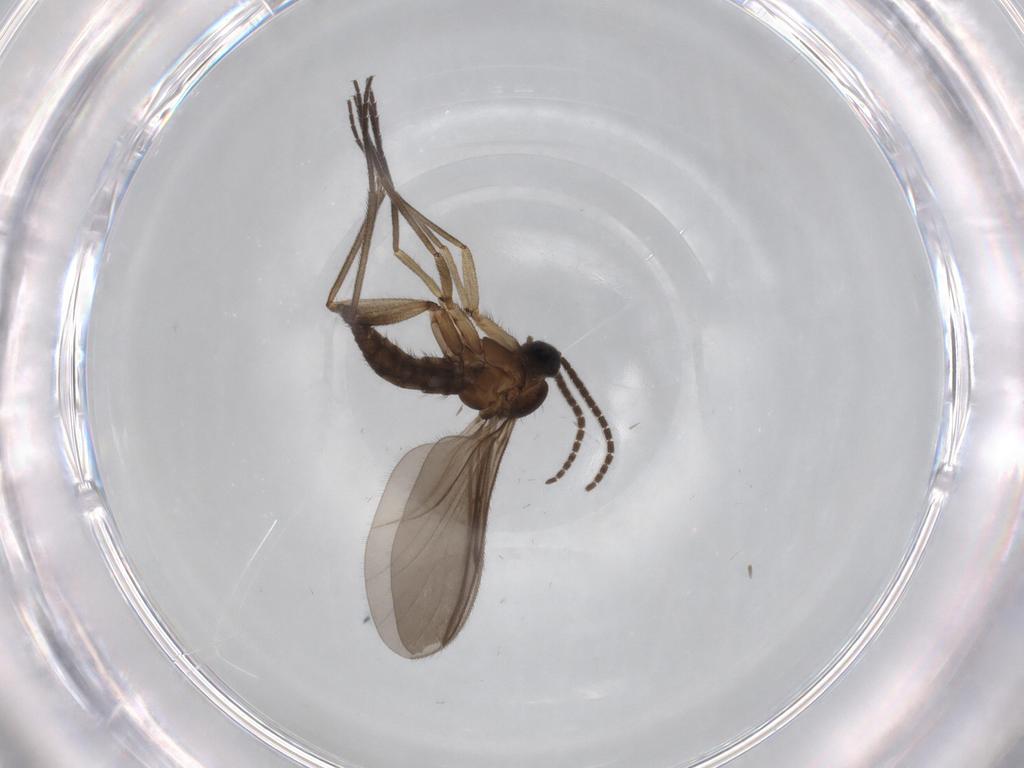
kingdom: Animalia
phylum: Arthropoda
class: Insecta
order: Diptera
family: Sciaridae
